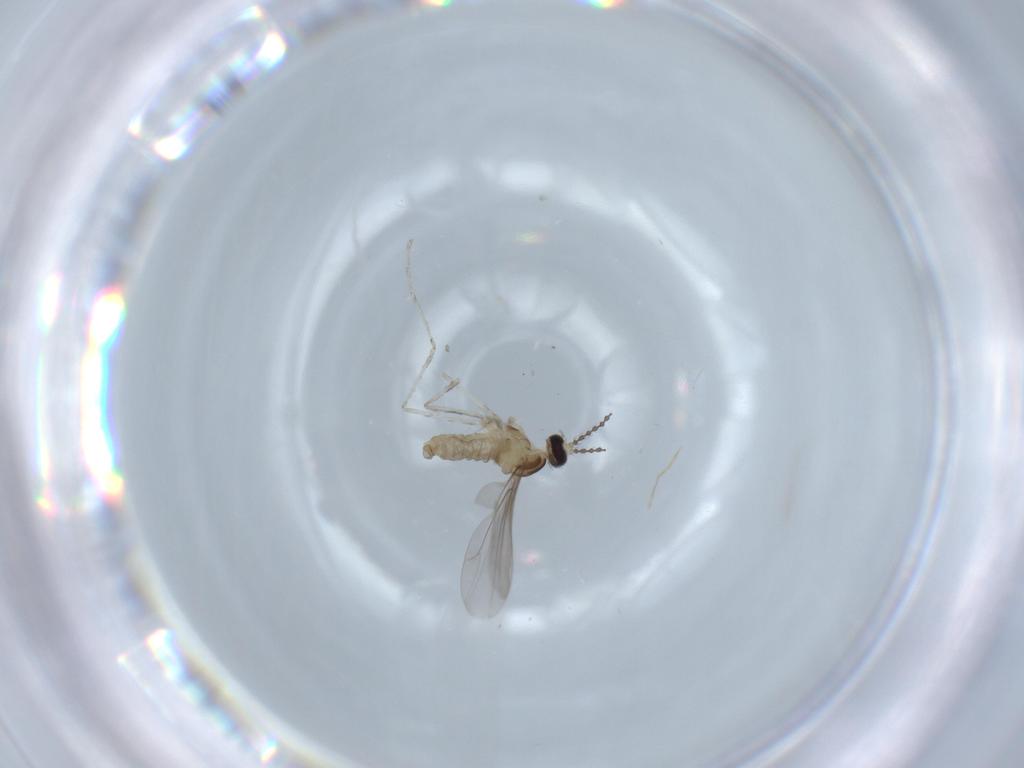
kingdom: Animalia
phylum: Arthropoda
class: Insecta
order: Diptera
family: Cecidomyiidae
